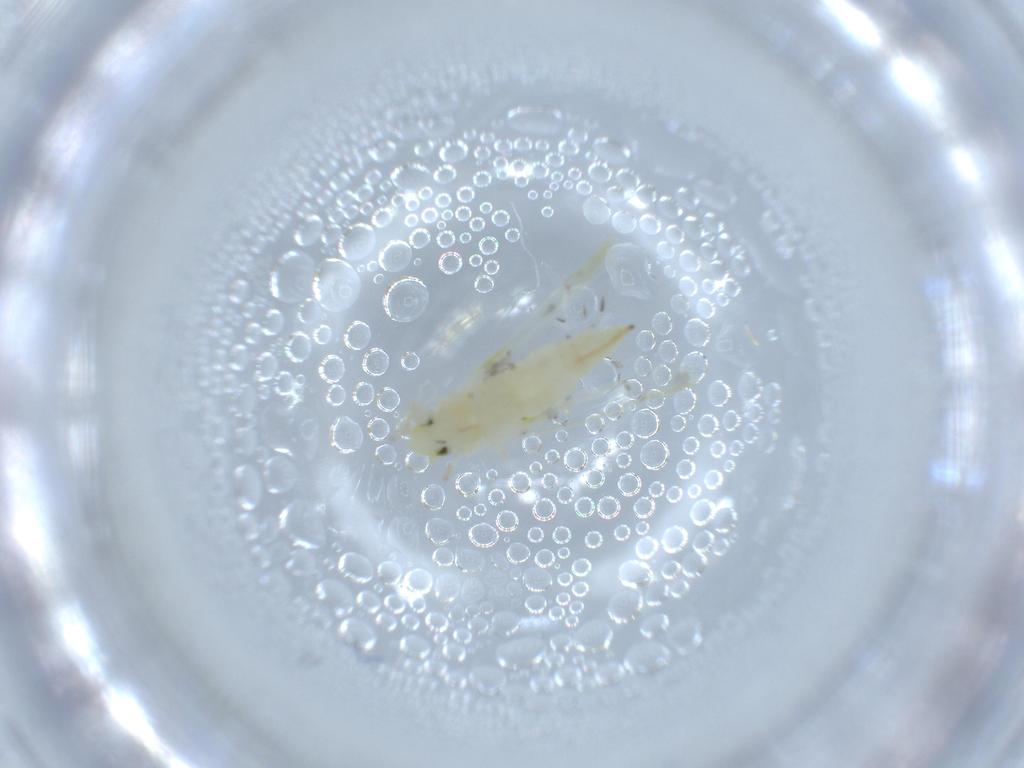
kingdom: Animalia
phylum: Arthropoda
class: Insecta
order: Hemiptera
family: Cicadellidae
